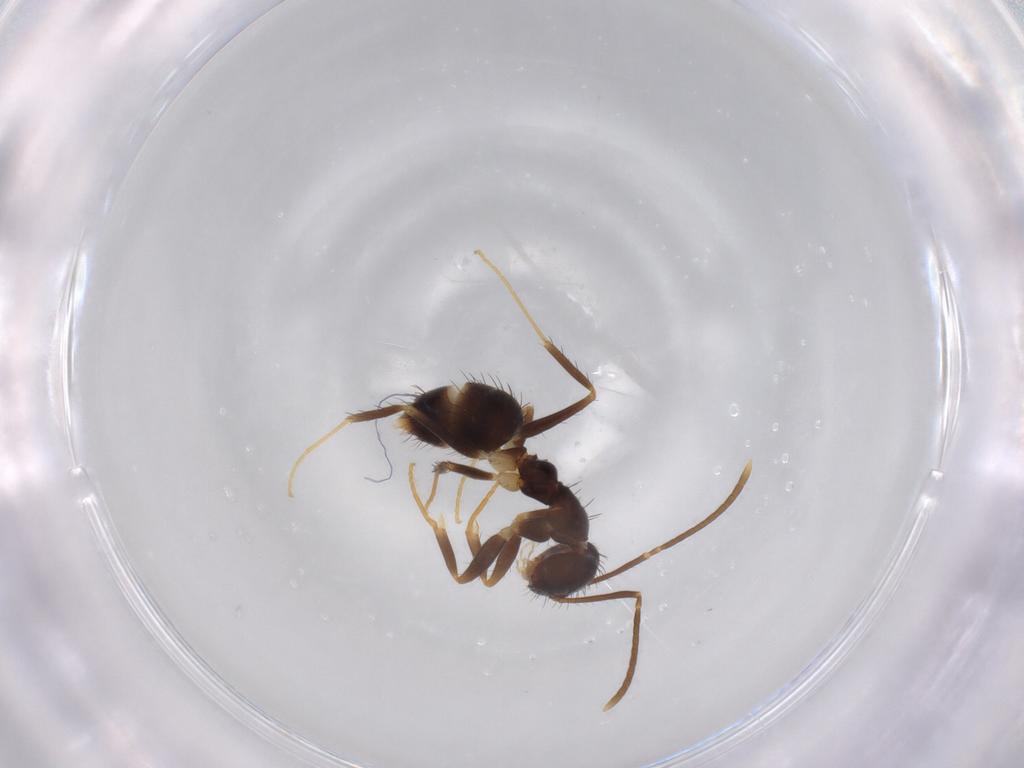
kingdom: Animalia
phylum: Arthropoda
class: Insecta
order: Hymenoptera
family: Formicidae
